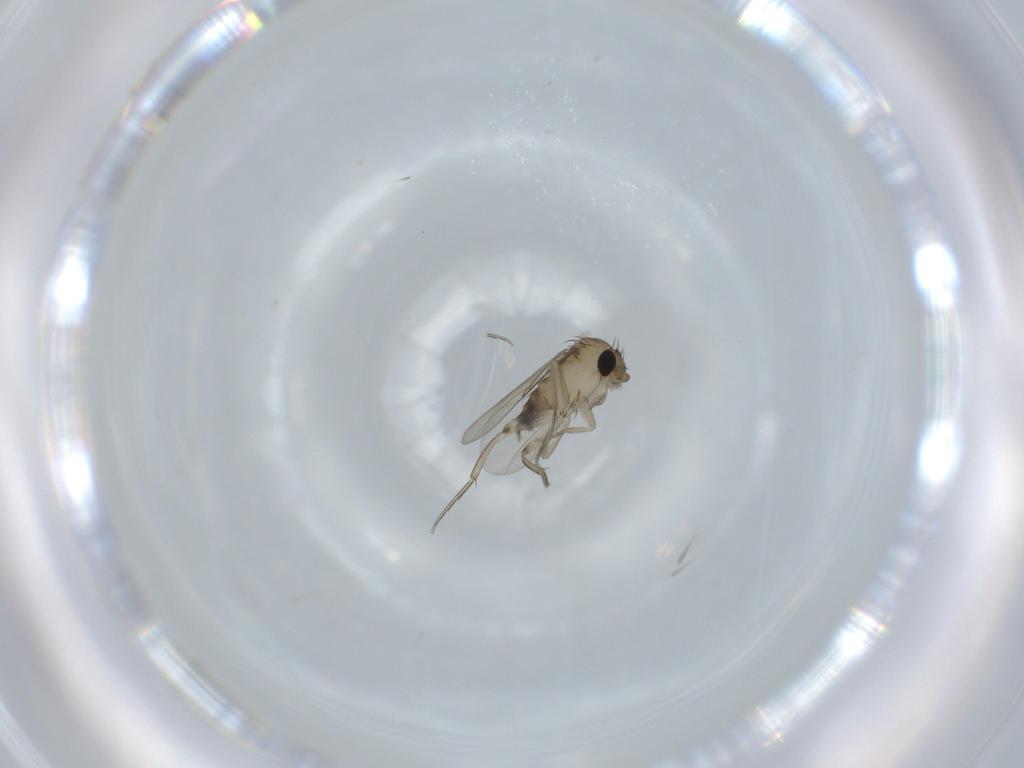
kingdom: Animalia
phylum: Arthropoda
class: Insecta
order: Diptera
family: Phoridae
